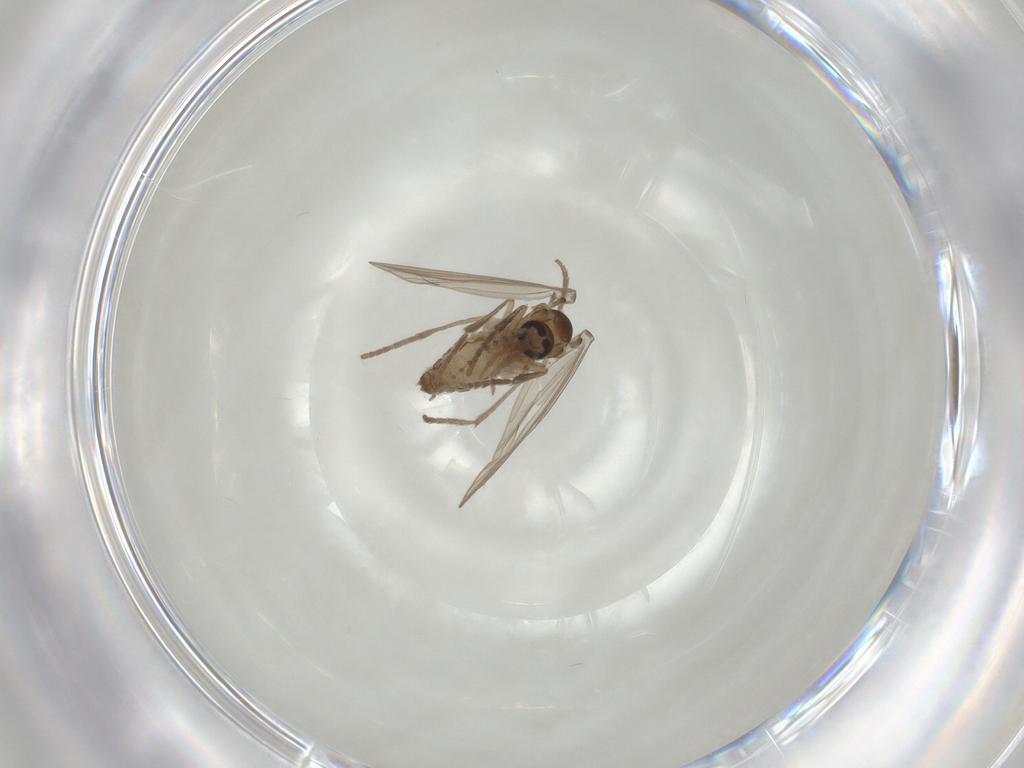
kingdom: Animalia
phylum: Arthropoda
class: Insecta
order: Diptera
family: Psychodidae
